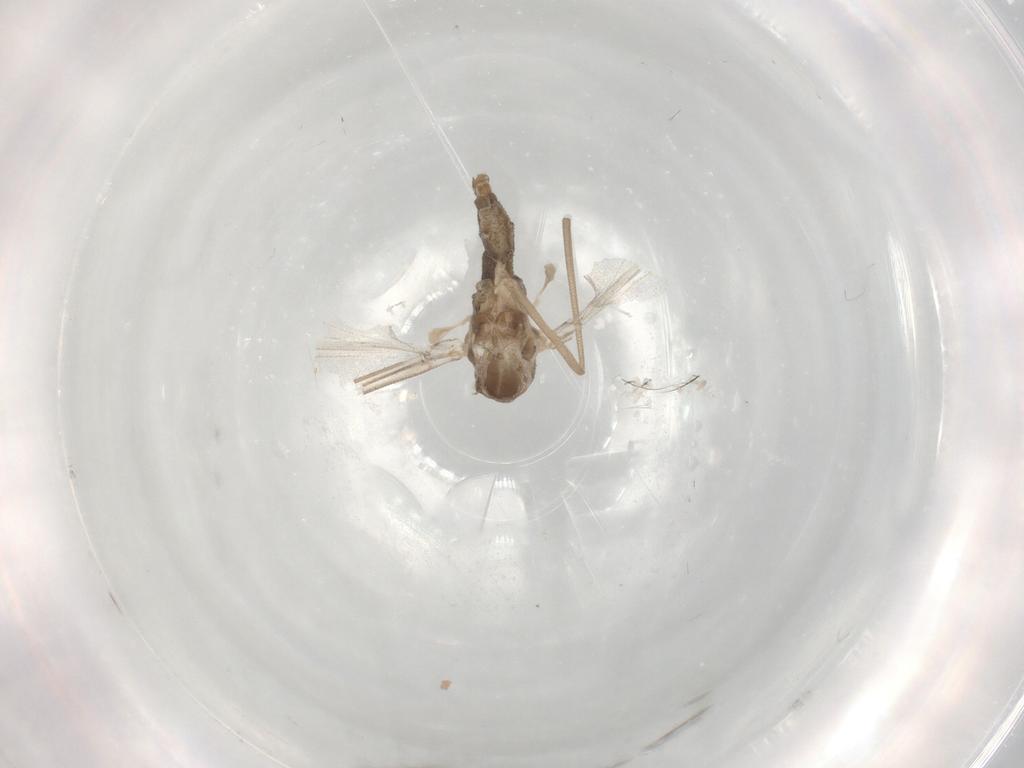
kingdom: Animalia
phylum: Arthropoda
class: Insecta
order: Diptera
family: Cecidomyiidae
